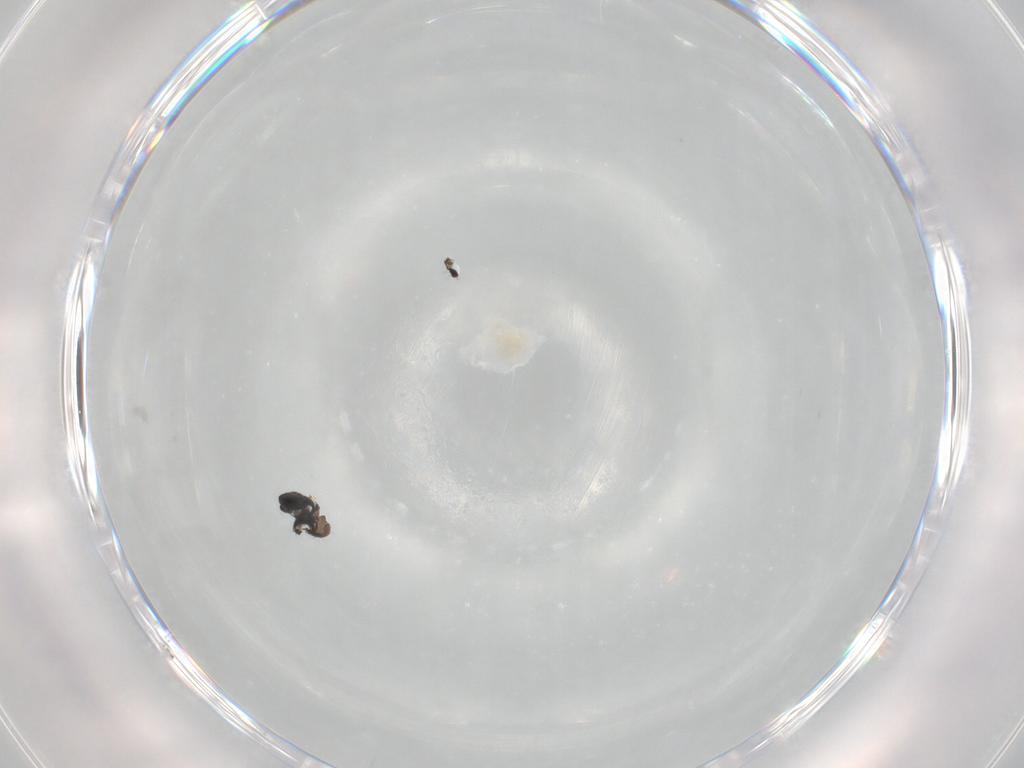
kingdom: Animalia
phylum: Arthropoda
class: Insecta
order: Hymenoptera
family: Scelionidae
